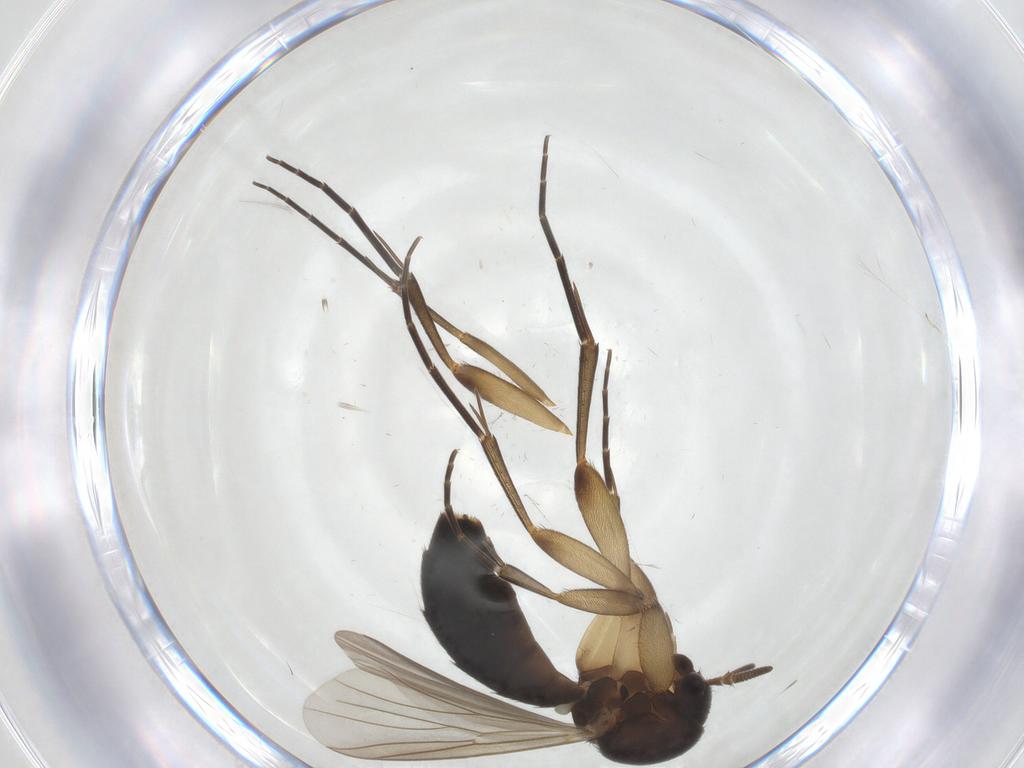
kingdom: Animalia
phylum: Arthropoda
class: Insecta
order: Diptera
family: Mycetophilidae
